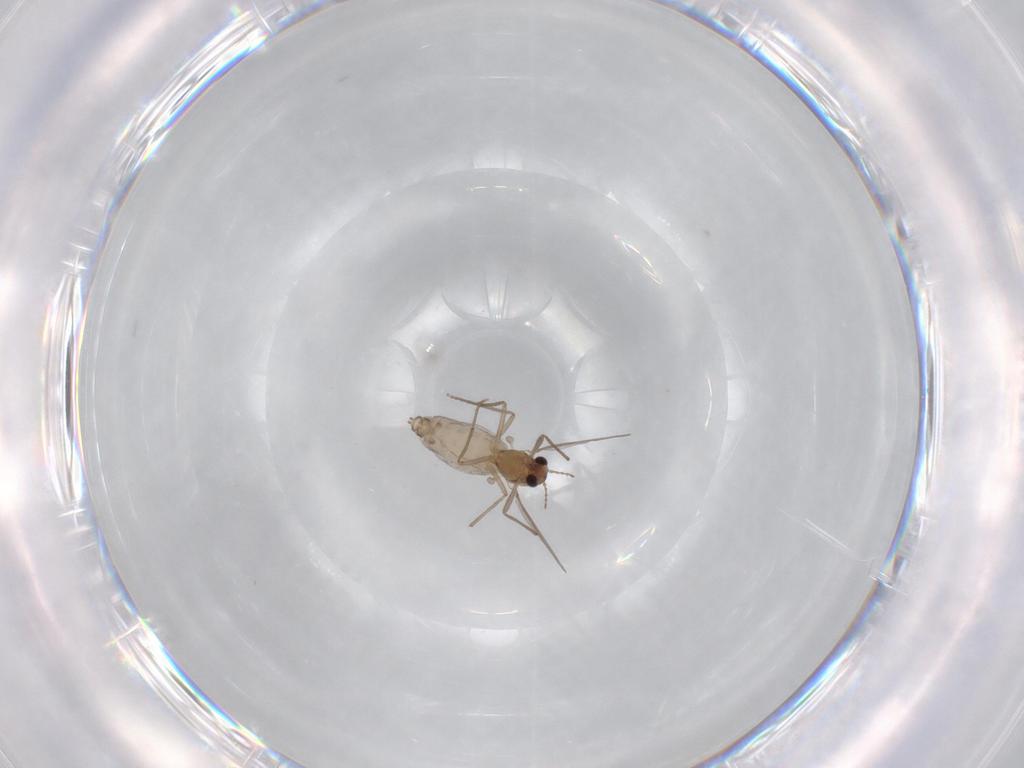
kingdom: Animalia
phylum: Arthropoda
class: Insecta
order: Diptera
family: Chironomidae
